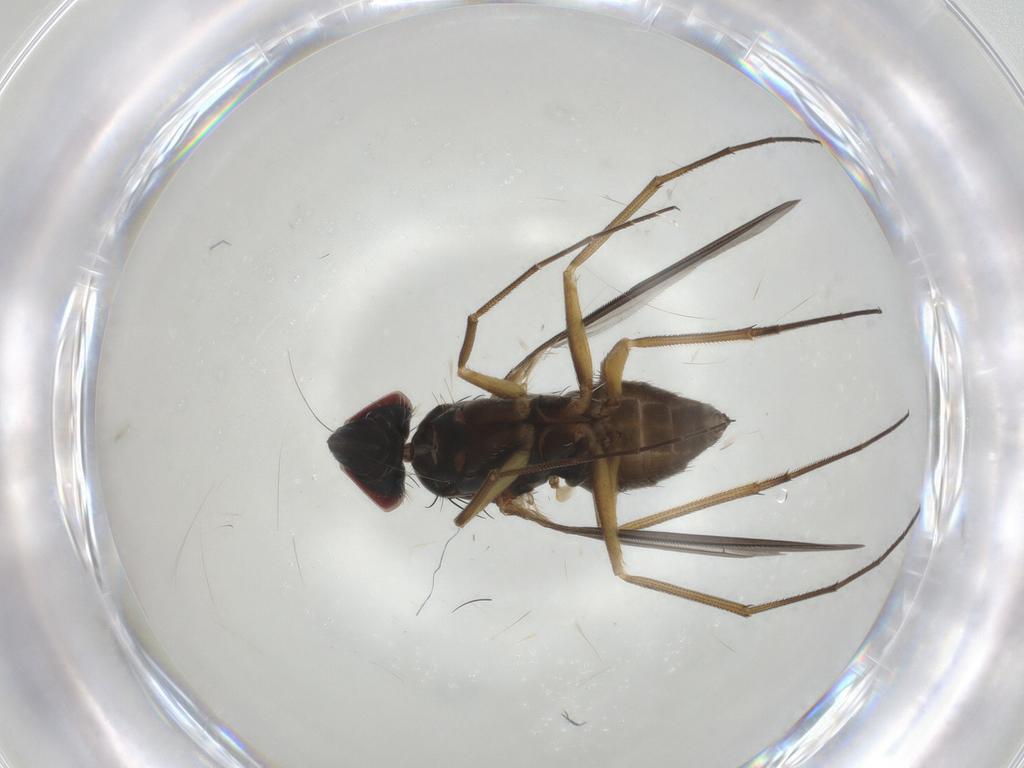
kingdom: Animalia
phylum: Arthropoda
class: Insecta
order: Diptera
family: Dolichopodidae
